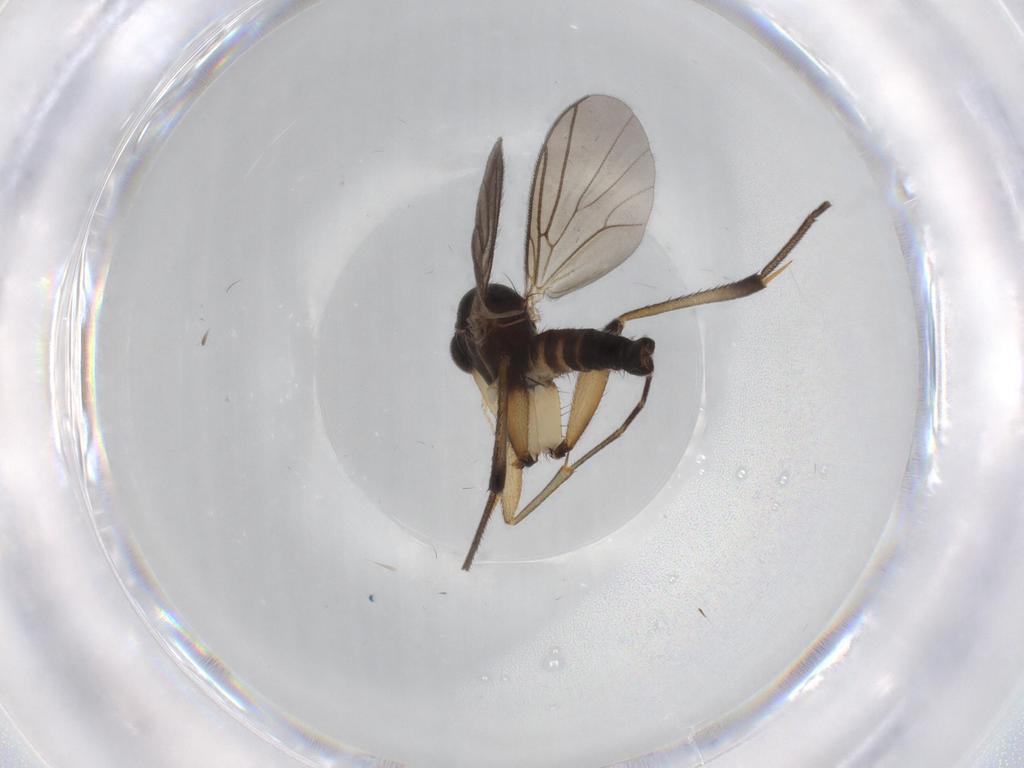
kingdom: Animalia
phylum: Arthropoda
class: Insecta
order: Diptera
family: Mycetophilidae
